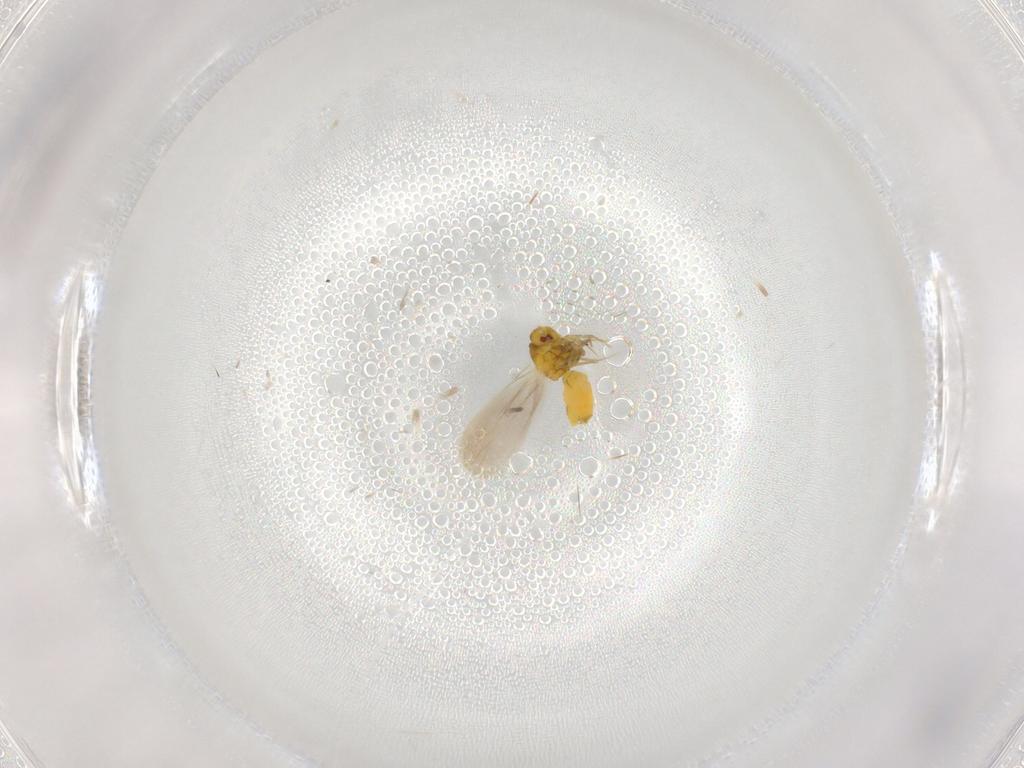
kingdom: Animalia
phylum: Arthropoda
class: Insecta
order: Hemiptera
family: Aleyrodidae
